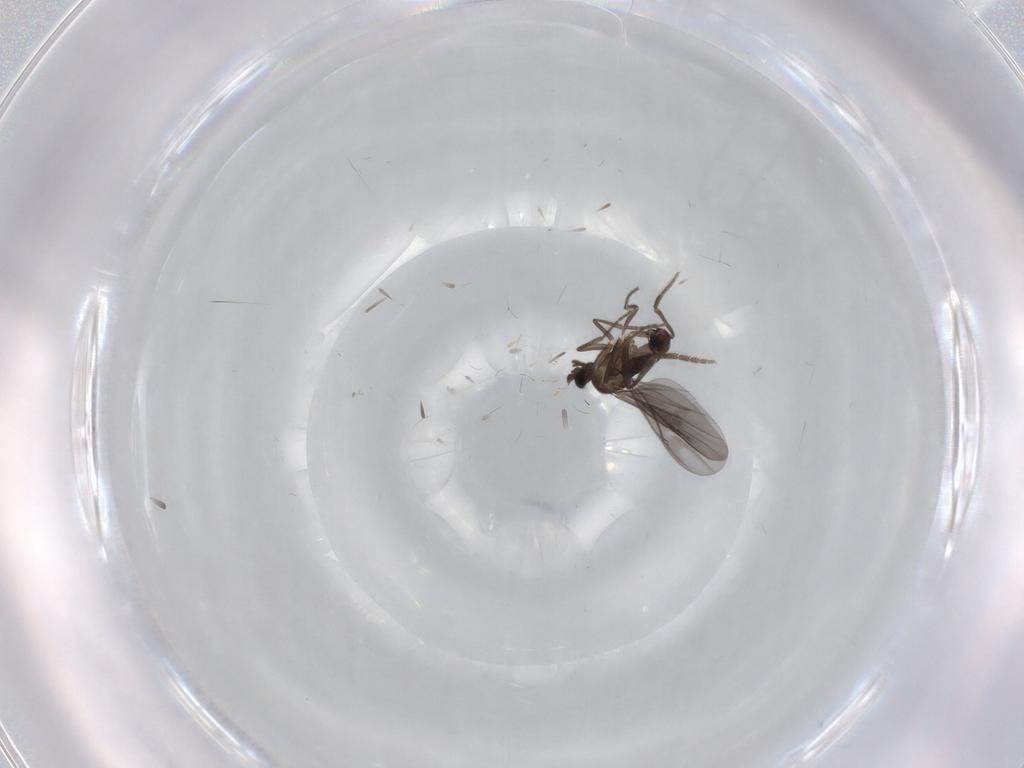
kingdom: Animalia
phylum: Arthropoda
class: Insecta
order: Diptera
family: Phoridae
